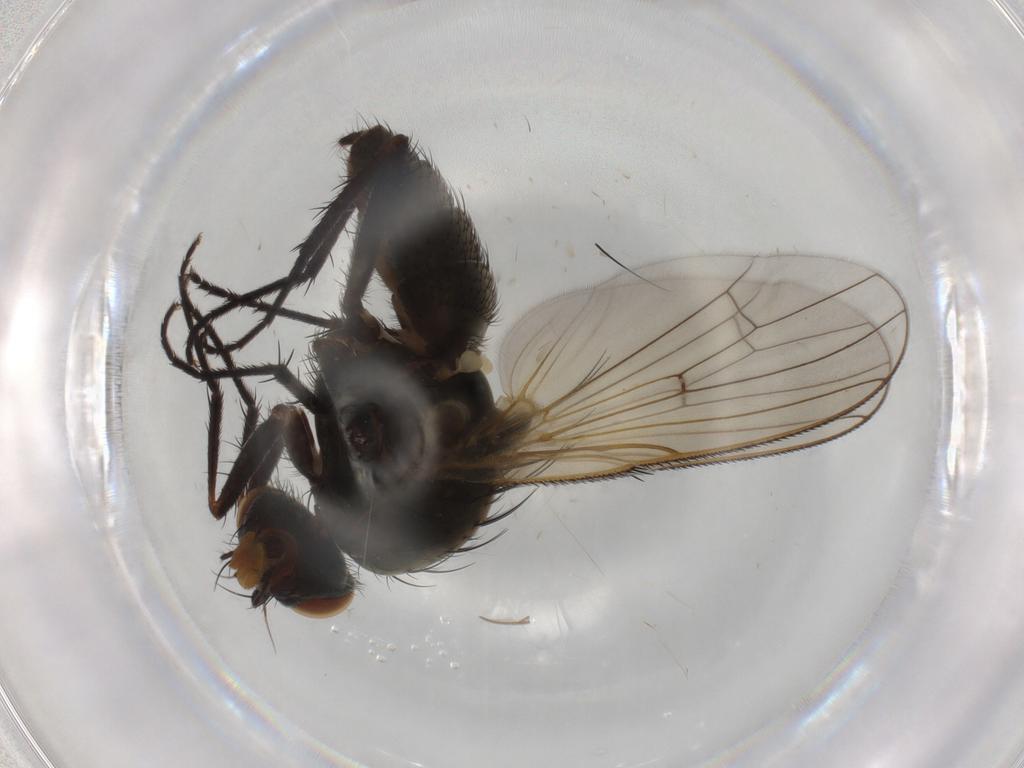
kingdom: Animalia
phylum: Arthropoda
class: Insecta
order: Diptera
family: Anthomyiidae
